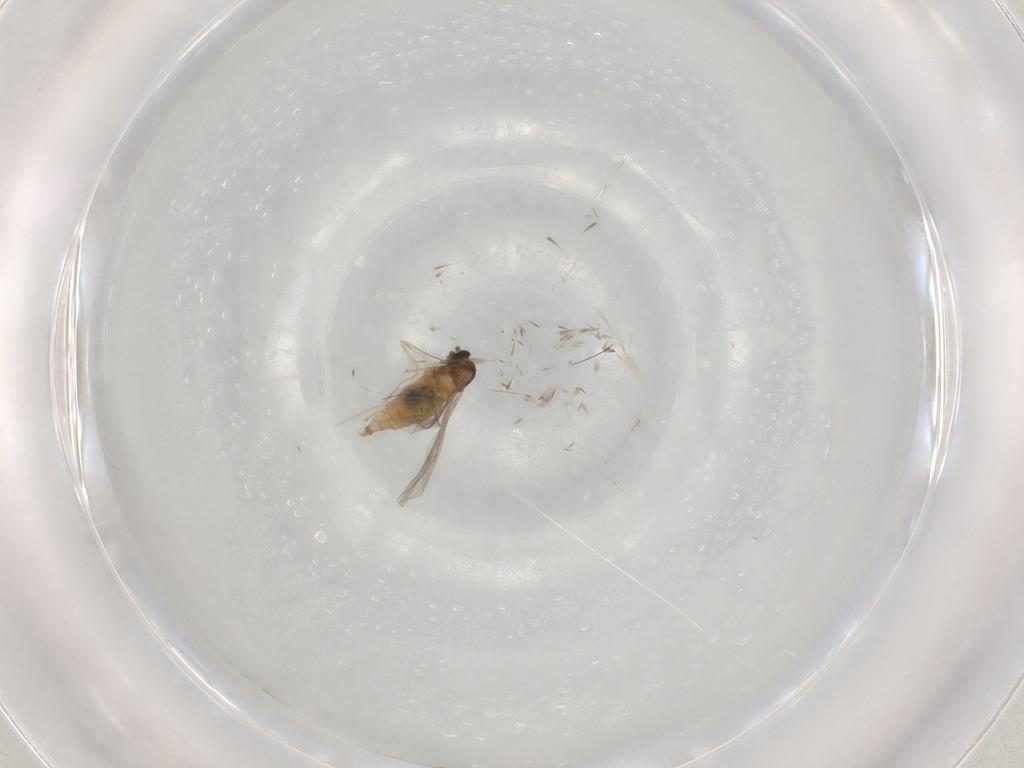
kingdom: Animalia
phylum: Arthropoda
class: Insecta
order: Diptera
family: Cecidomyiidae
